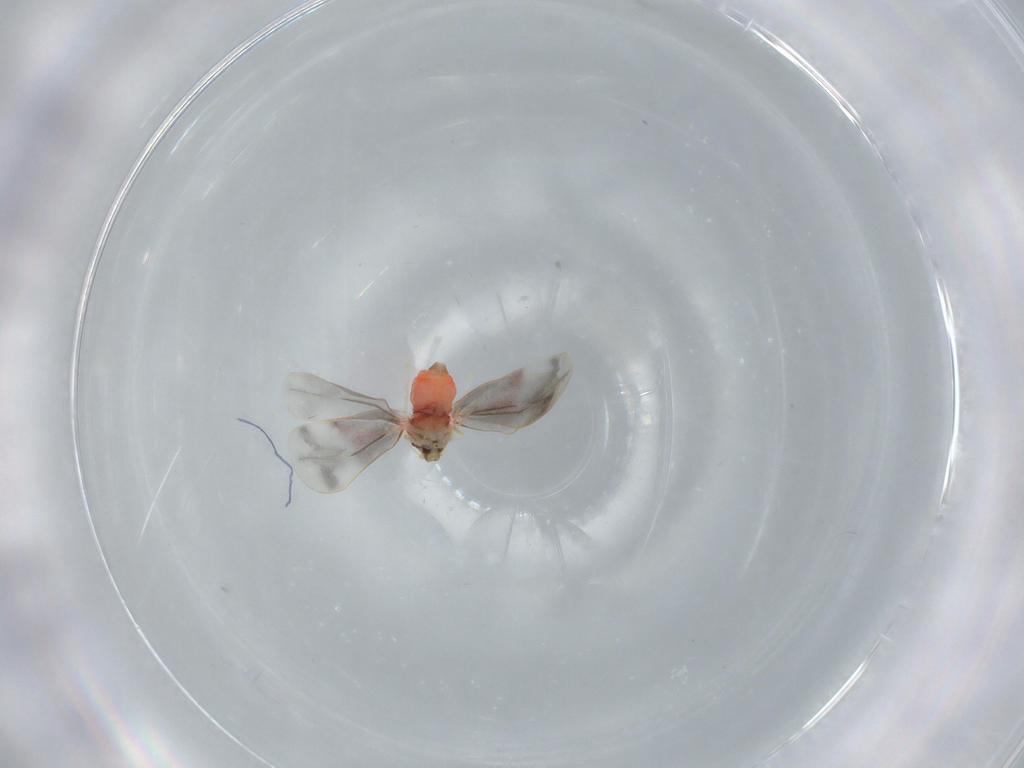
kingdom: Animalia
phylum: Arthropoda
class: Insecta
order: Hemiptera
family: Aleyrodidae
